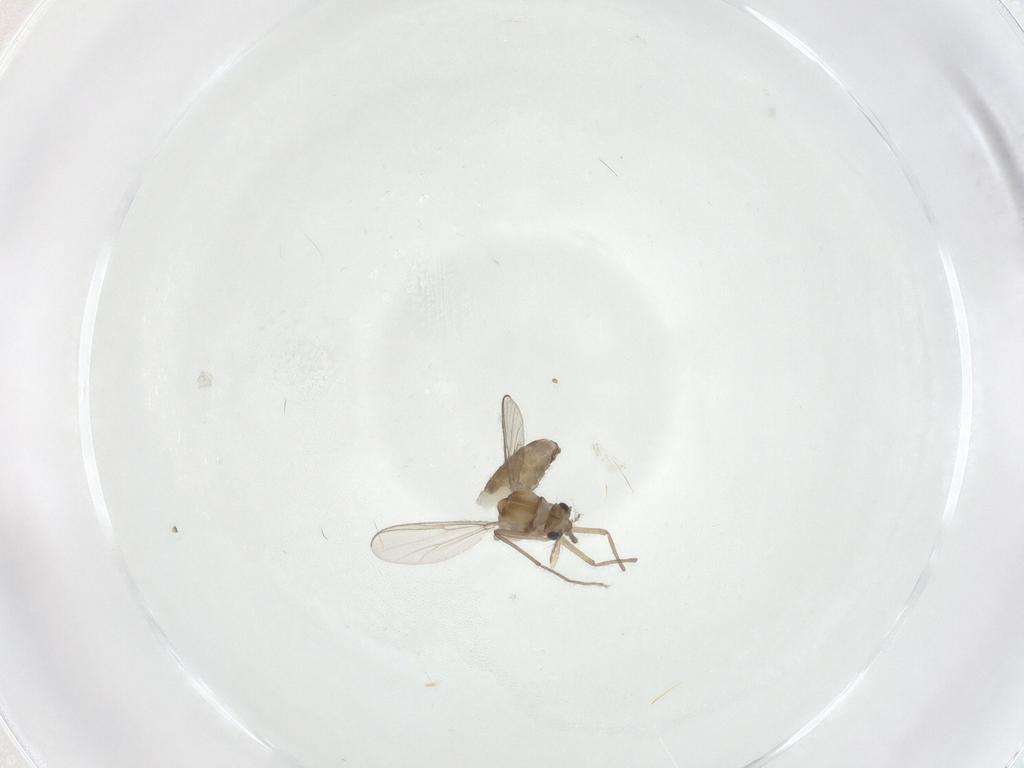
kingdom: Animalia
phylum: Arthropoda
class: Insecta
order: Diptera
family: Chironomidae
